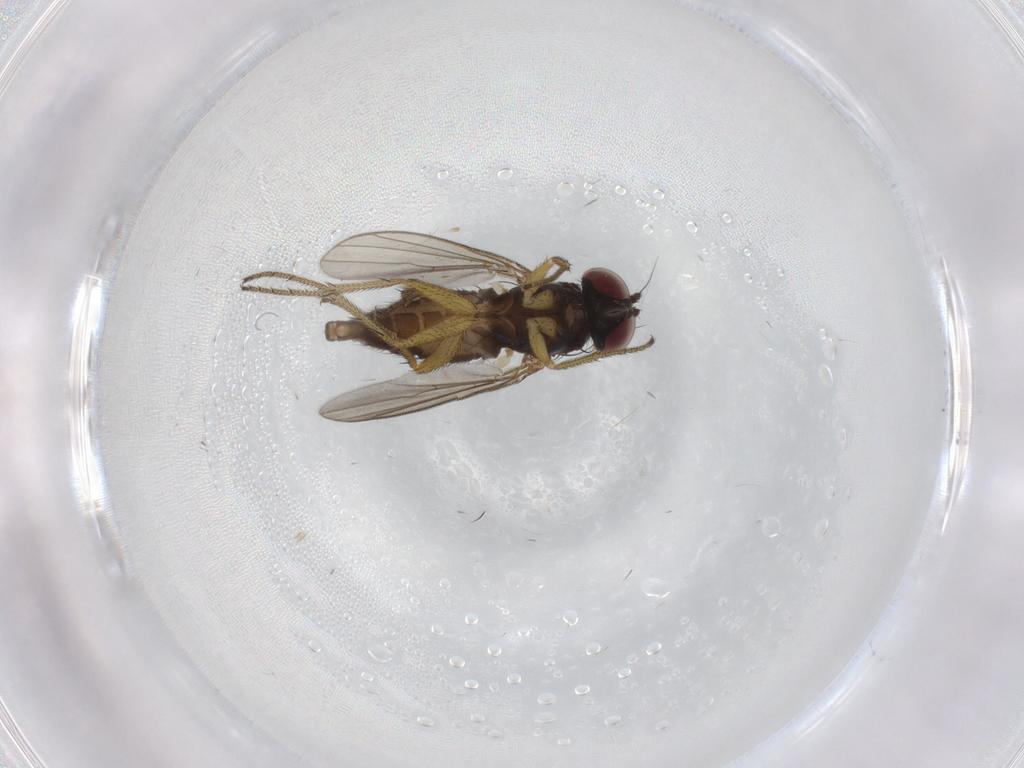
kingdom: Animalia
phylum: Arthropoda
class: Insecta
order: Diptera
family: Dolichopodidae
